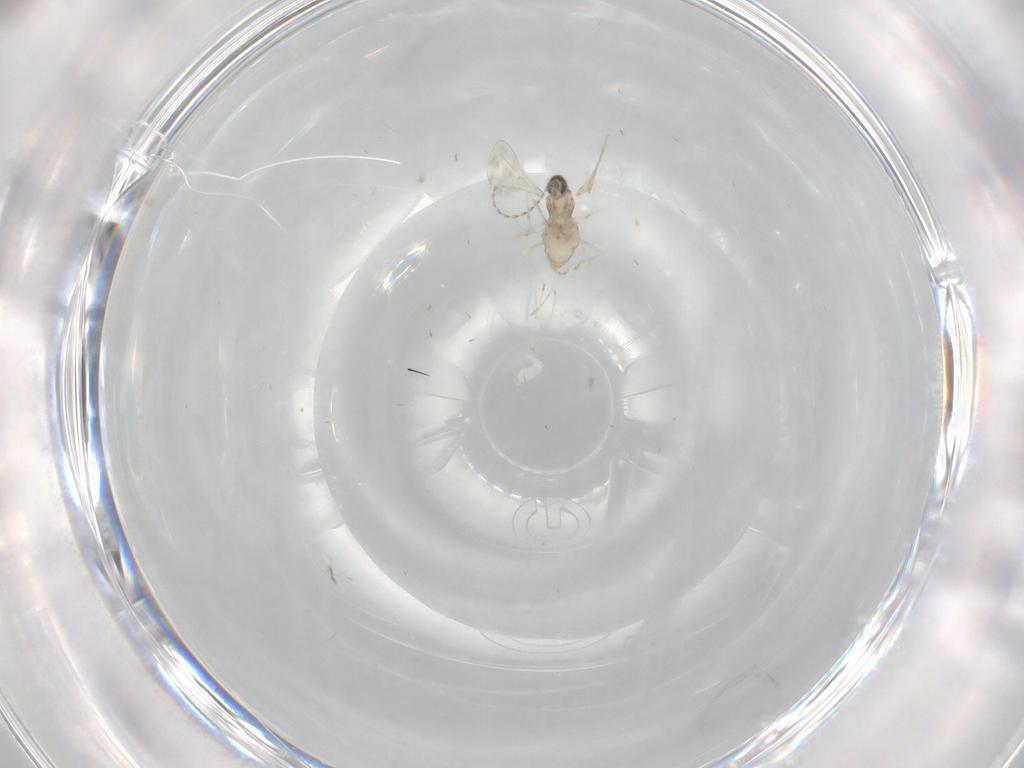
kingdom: Animalia
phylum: Arthropoda
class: Insecta
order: Diptera
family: Cecidomyiidae
